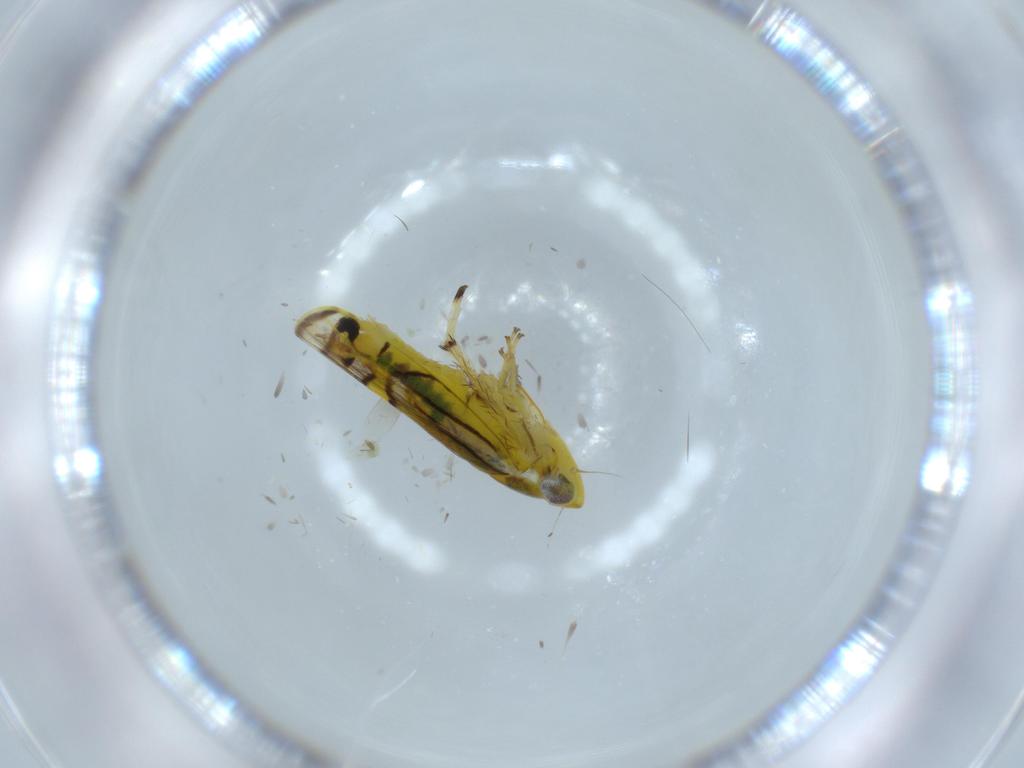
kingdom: Animalia
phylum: Arthropoda
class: Insecta
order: Hemiptera
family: Cicadellidae
